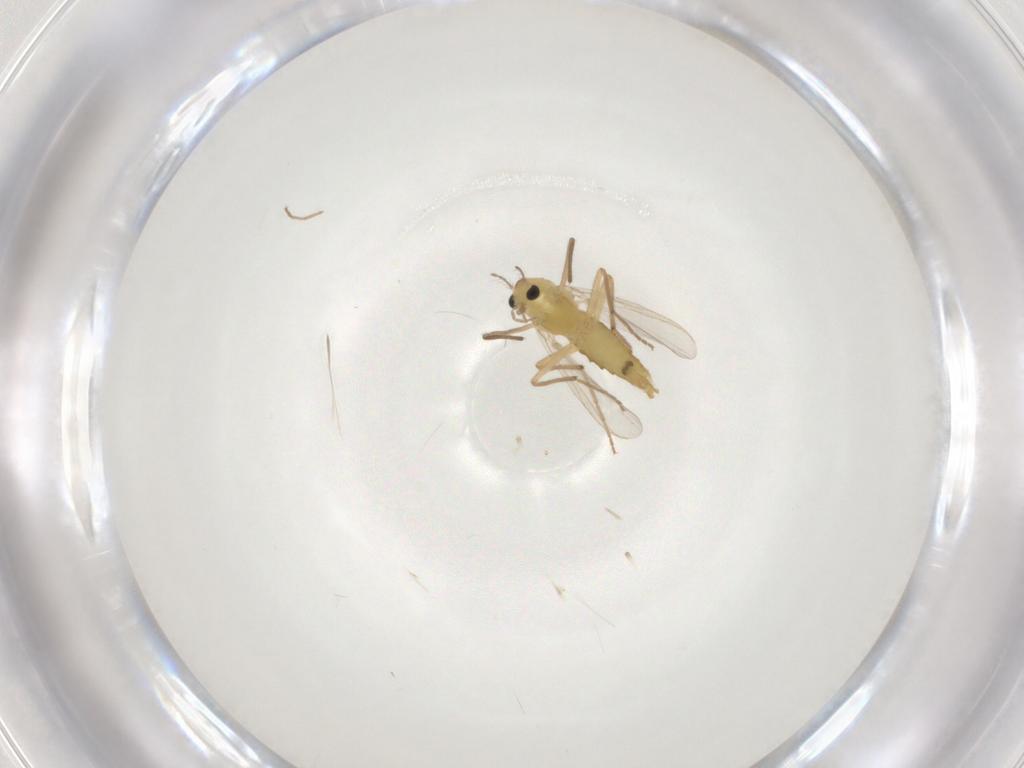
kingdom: Animalia
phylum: Arthropoda
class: Insecta
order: Diptera
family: Chironomidae
